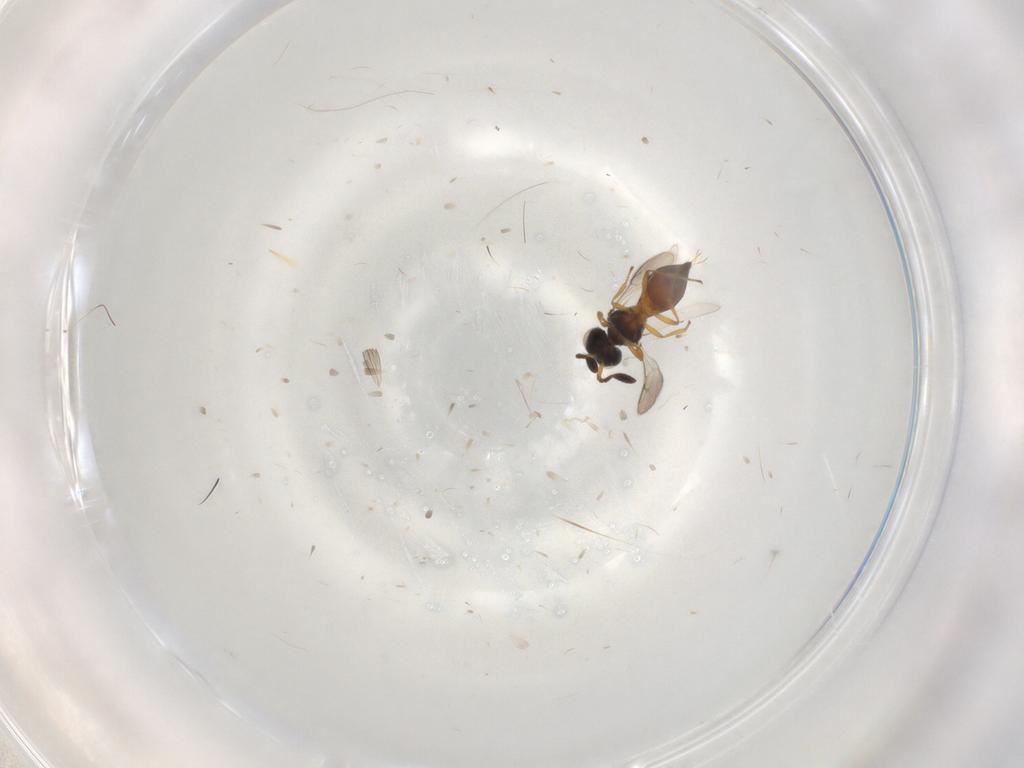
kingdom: Animalia
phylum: Arthropoda
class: Insecta
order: Hymenoptera
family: Scelionidae
